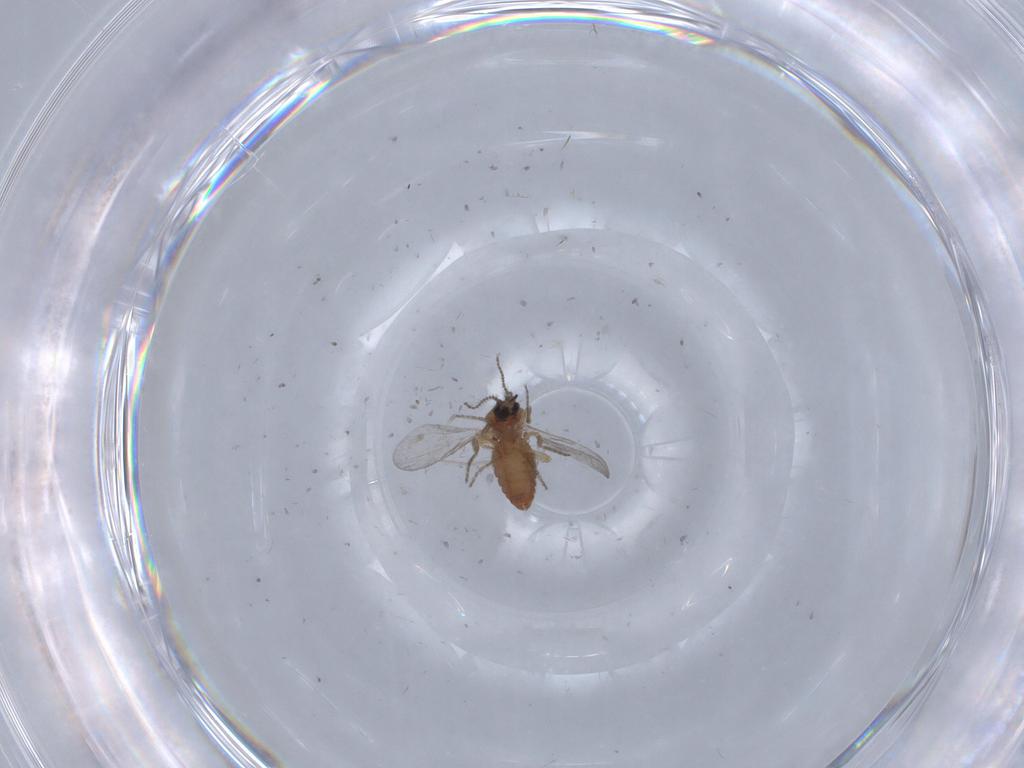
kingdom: Animalia
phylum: Arthropoda
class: Insecta
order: Diptera
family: Ceratopogonidae
